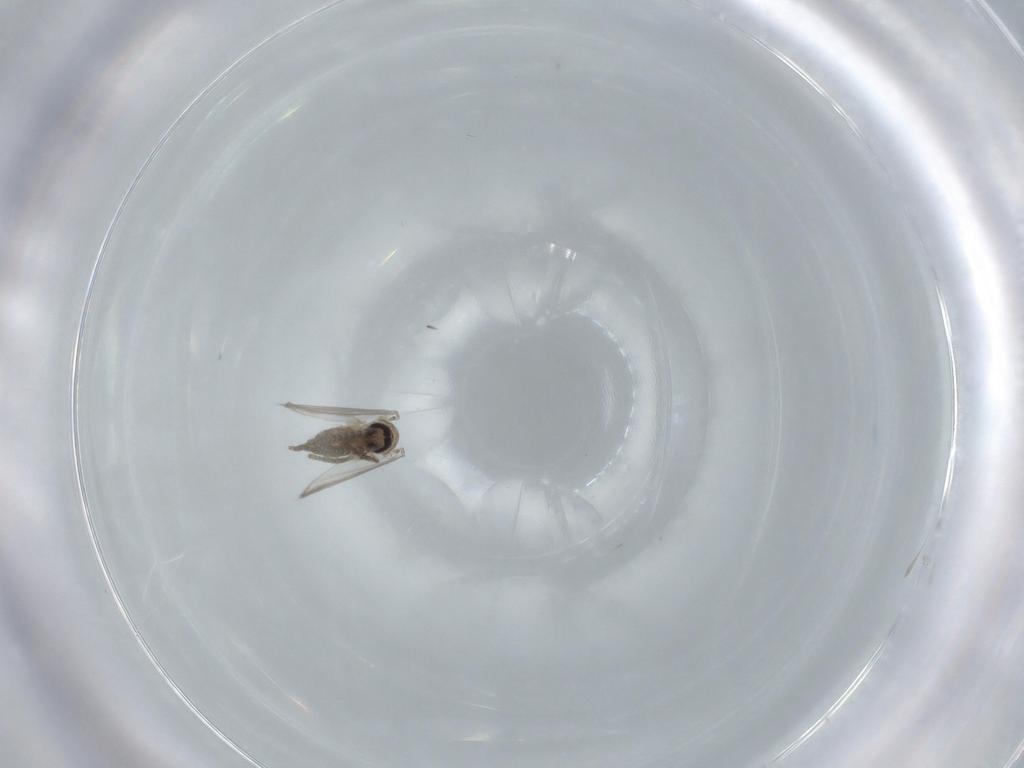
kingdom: Animalia
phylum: Arthropoda
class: Insecta
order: Diptera
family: Psychodidae
